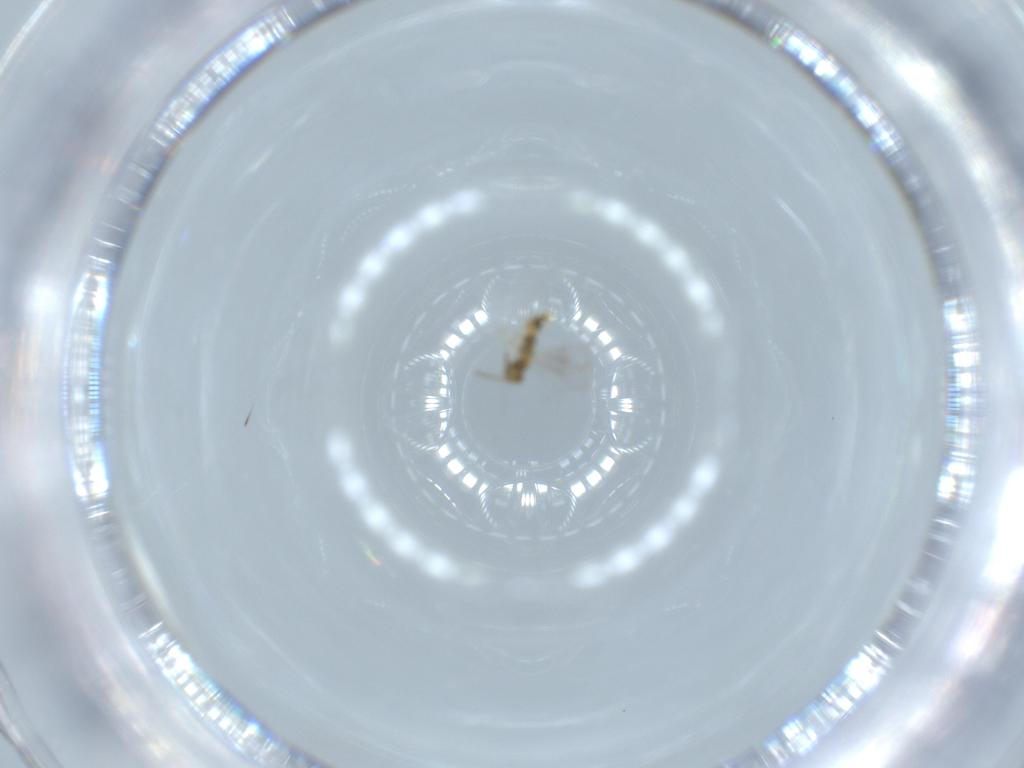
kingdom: Animalia
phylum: Arthropoda
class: Insecta
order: Hymenoptera
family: Aphelinidae
